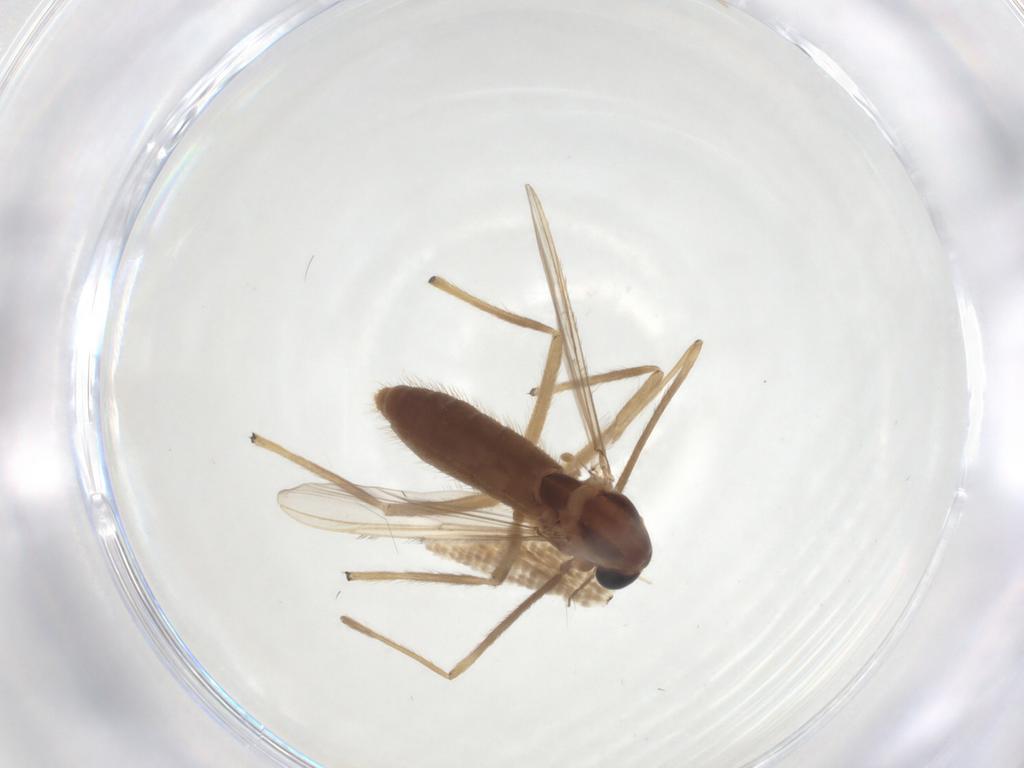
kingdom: Animalia
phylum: Arthropoda
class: Insecta
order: Diptera
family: Chironomidae
